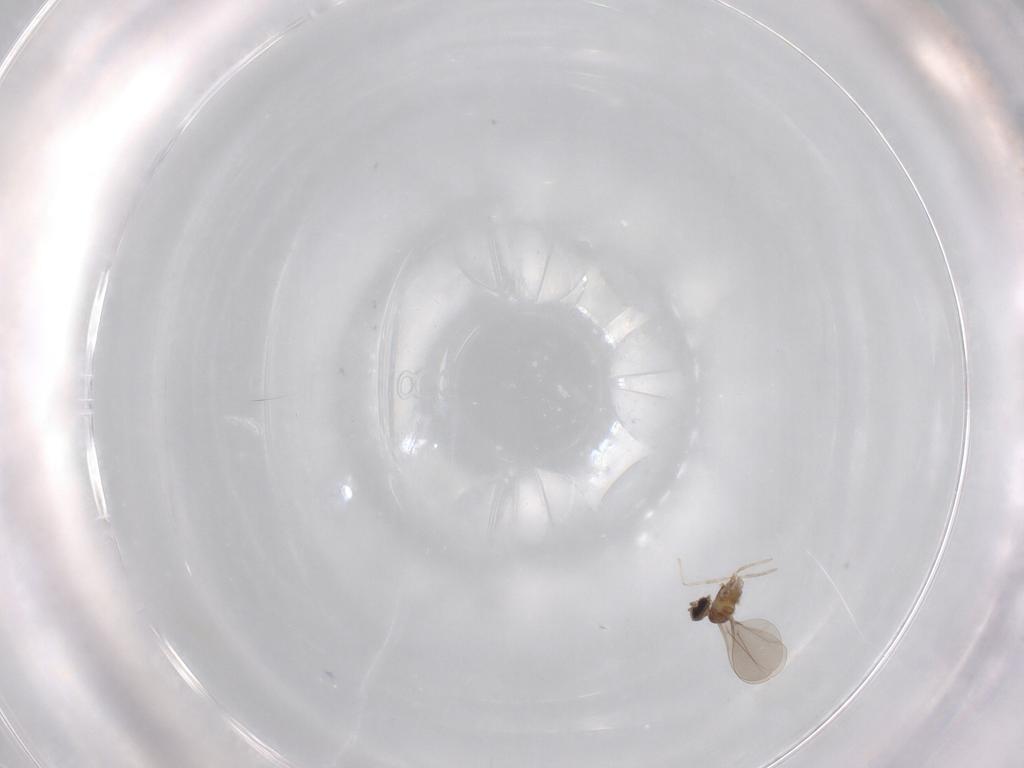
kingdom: Animalia
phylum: Arthropoda
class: Insecta
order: Diptera
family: Cecidomyiidae
